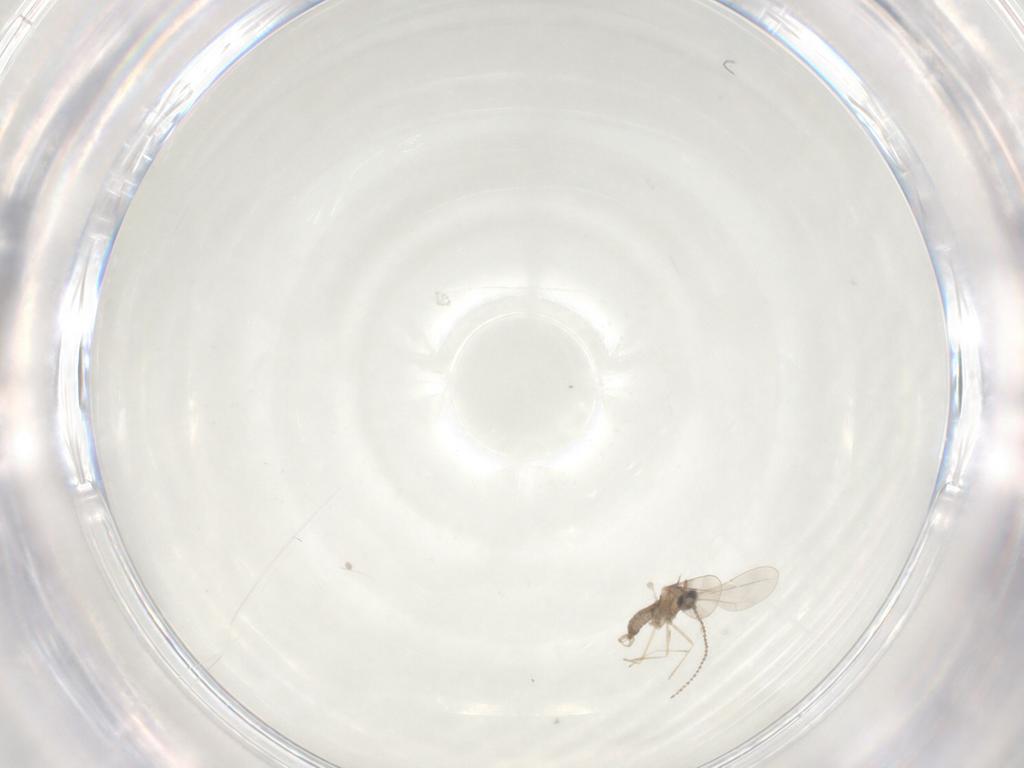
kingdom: Animalia
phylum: Arthropoda
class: Insecta
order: Diptera
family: Cecidomyiidae
